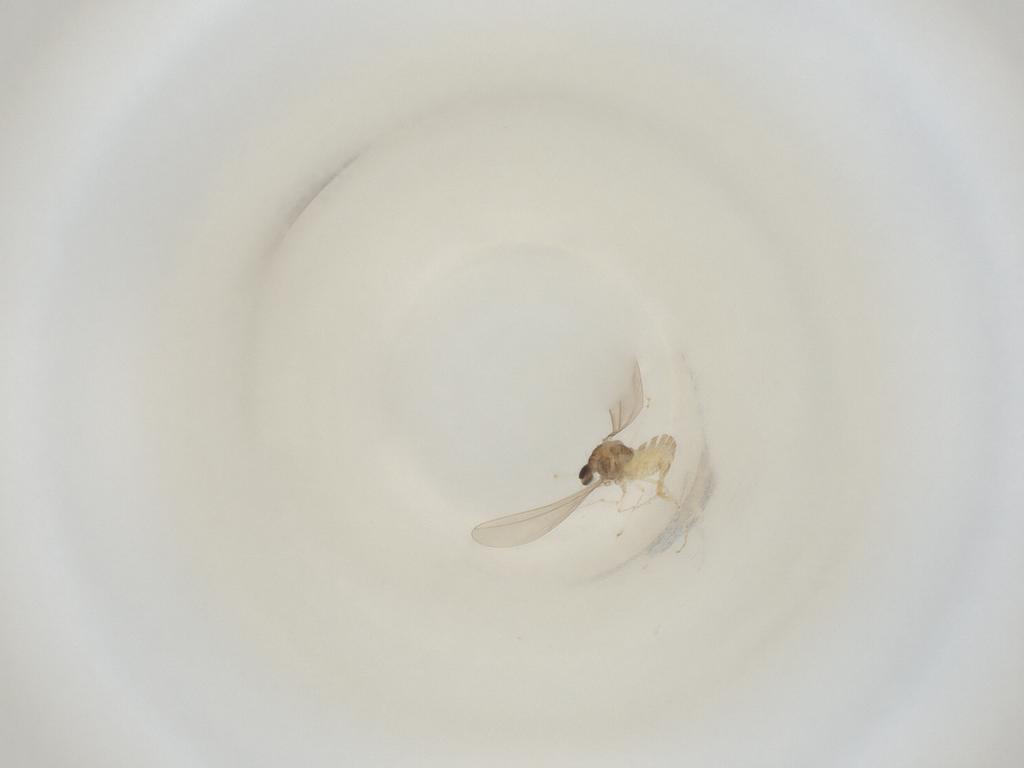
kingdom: Animalia
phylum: Arthropoda
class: Insecta
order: Diptera
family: Cecidomyiidae
